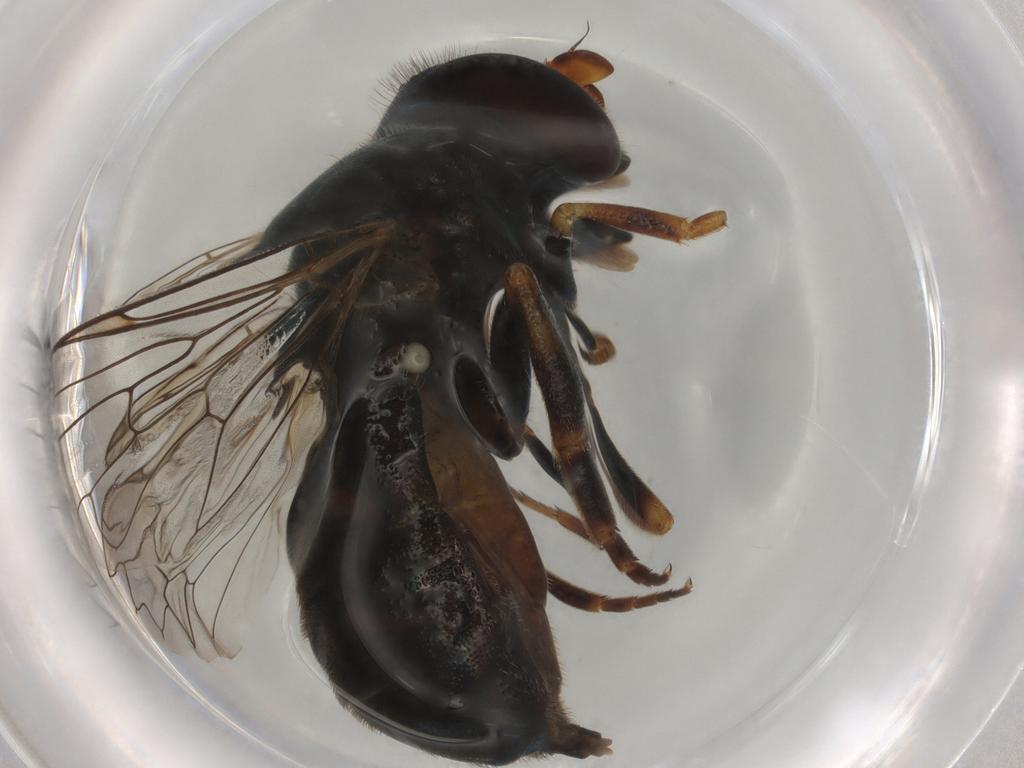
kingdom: Animalia
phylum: Arthropoda
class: Insecta
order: Diptera
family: Syrphidae
